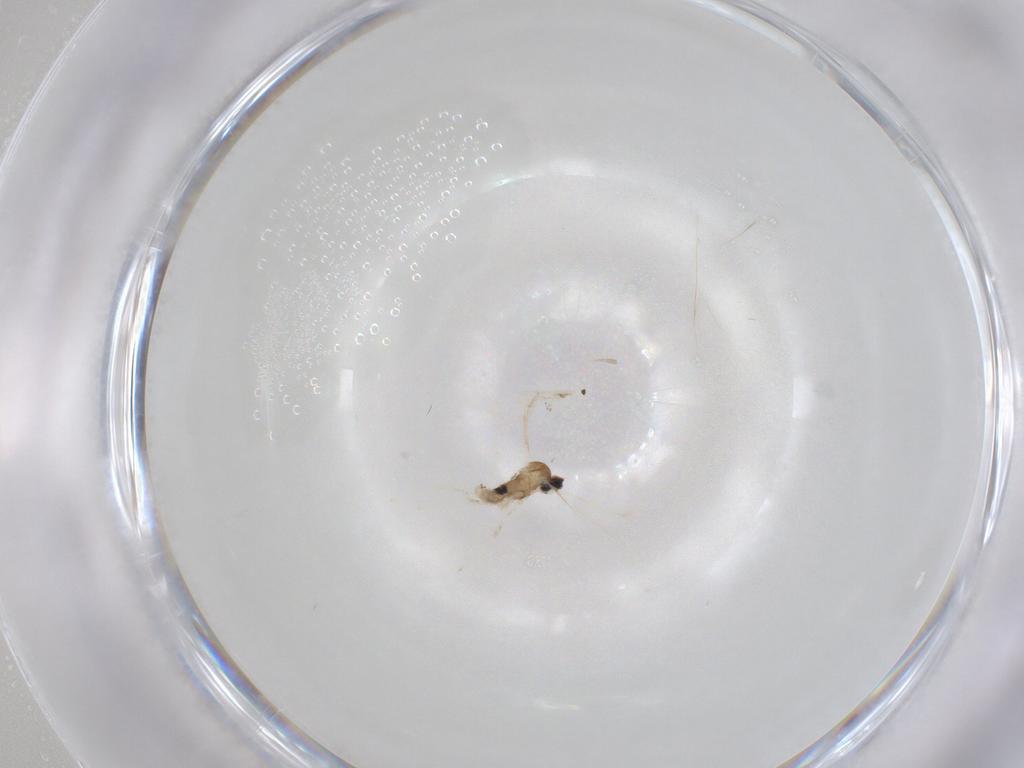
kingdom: Animalia
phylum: Arthropoda
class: Insecta
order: Diptera
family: Cecidomyiidae
